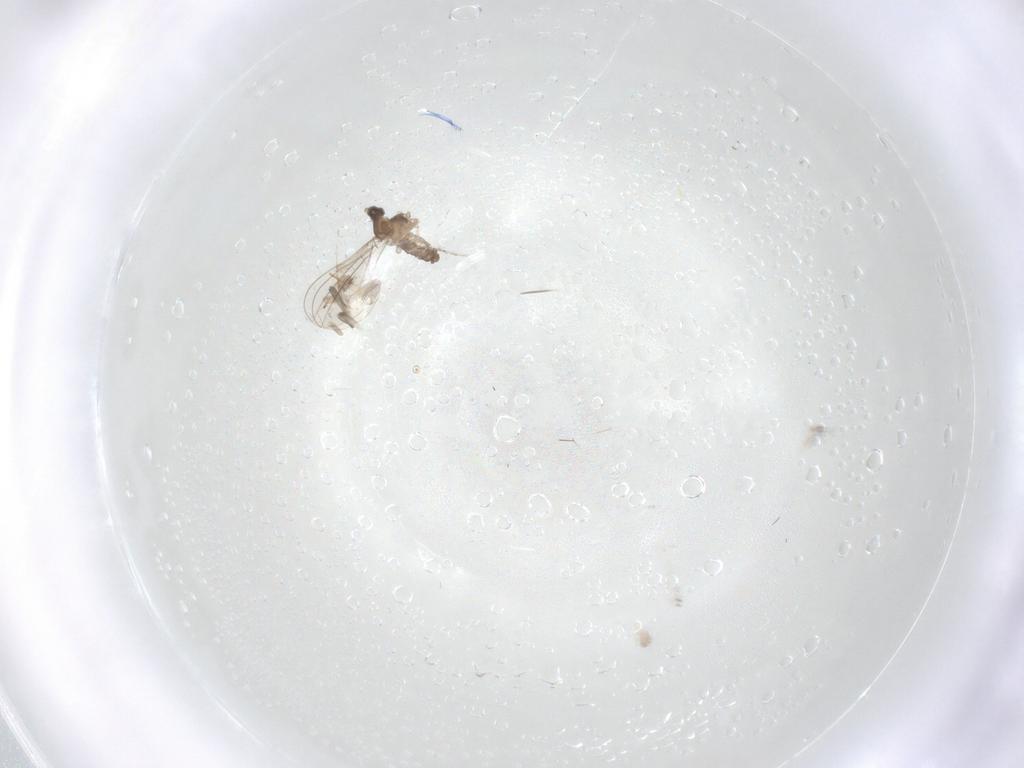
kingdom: Animalia
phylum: Arthropoda
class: Insecta
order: Diptera
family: Cecidomyiidae
